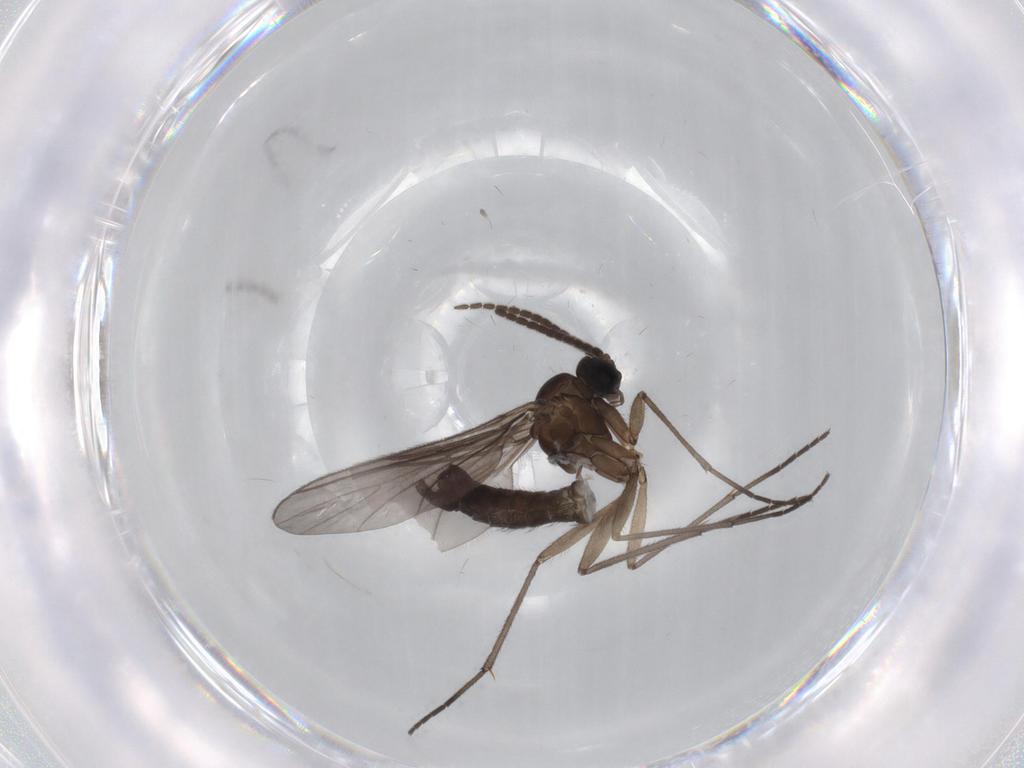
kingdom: Animalia
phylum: Arthropoda
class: Insecta
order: Diptera
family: Sciaridae
